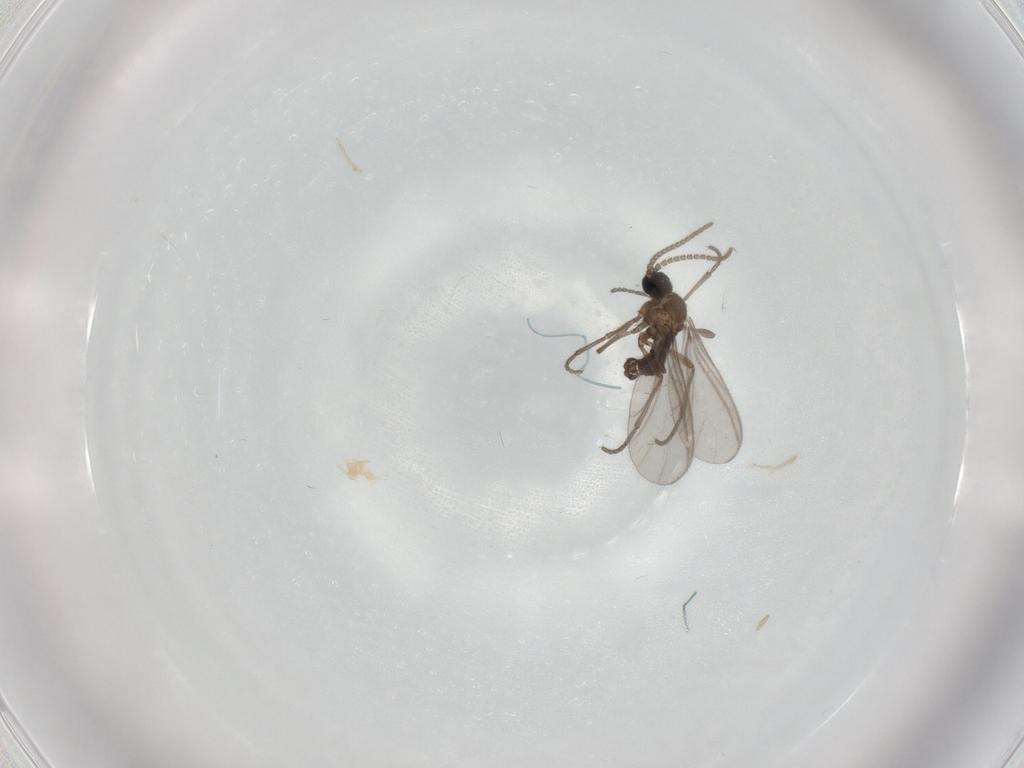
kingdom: Animalia
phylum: Arthropoda
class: Insecta
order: Diptera
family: Sciaridae
